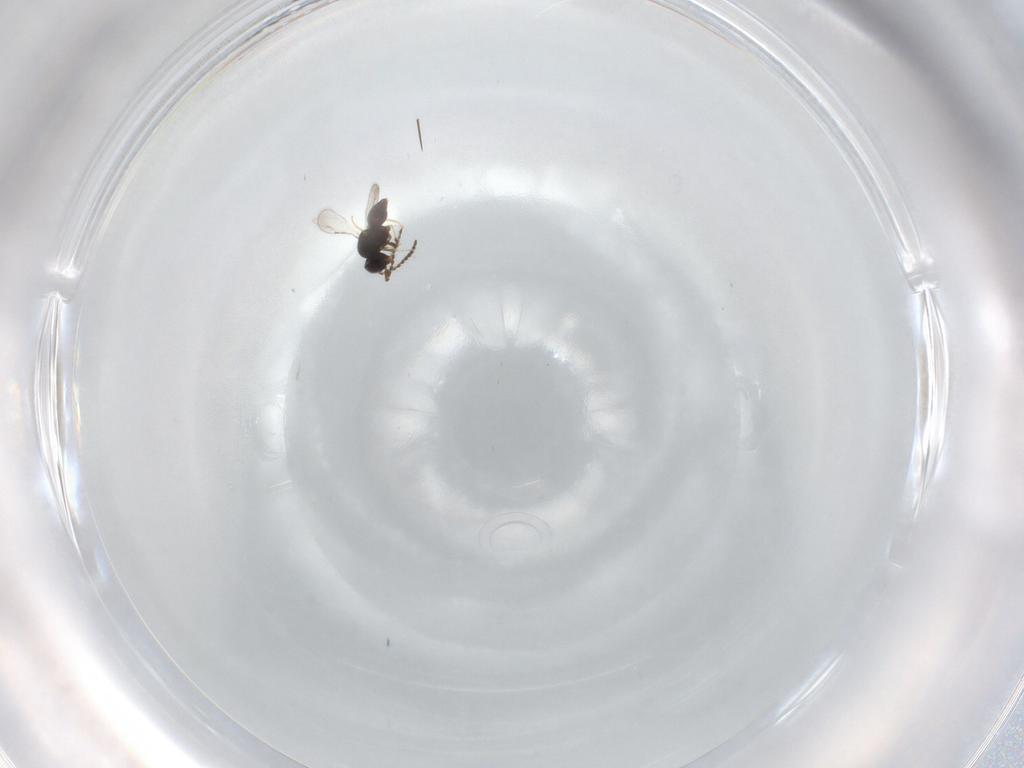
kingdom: Animalia
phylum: Arthropoda
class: Insecta
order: Hymenoptera
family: Proctotrupidae
